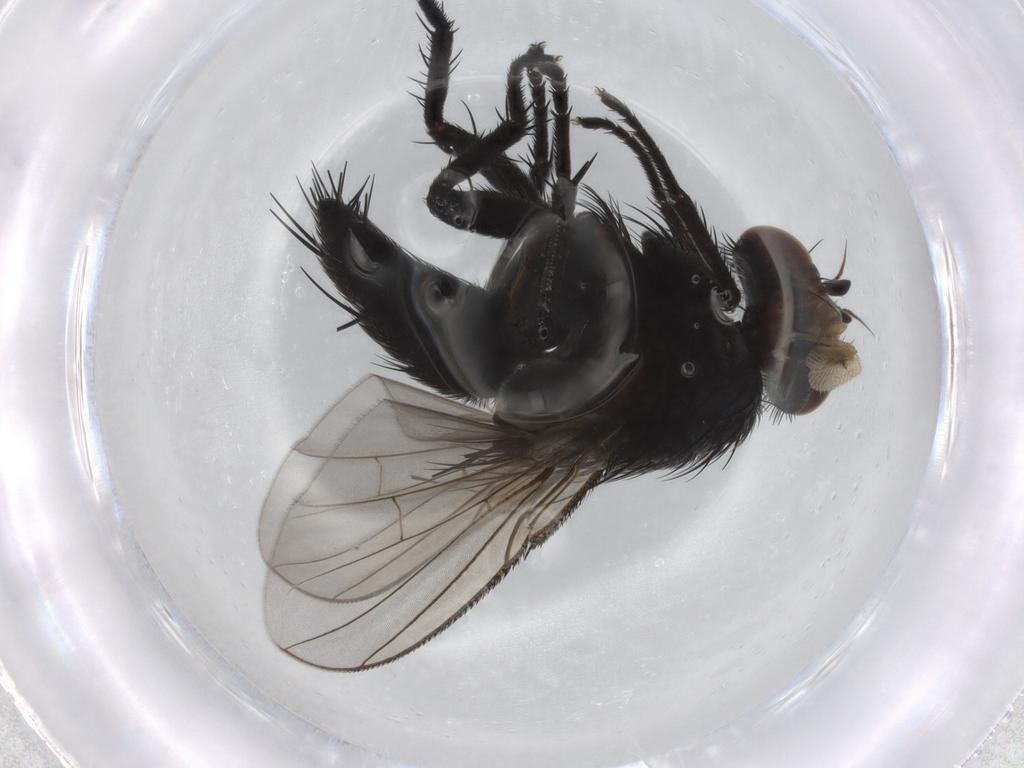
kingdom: Animalia
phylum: Arthropoda
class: Insecta
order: Diptera
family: Tachinidae
